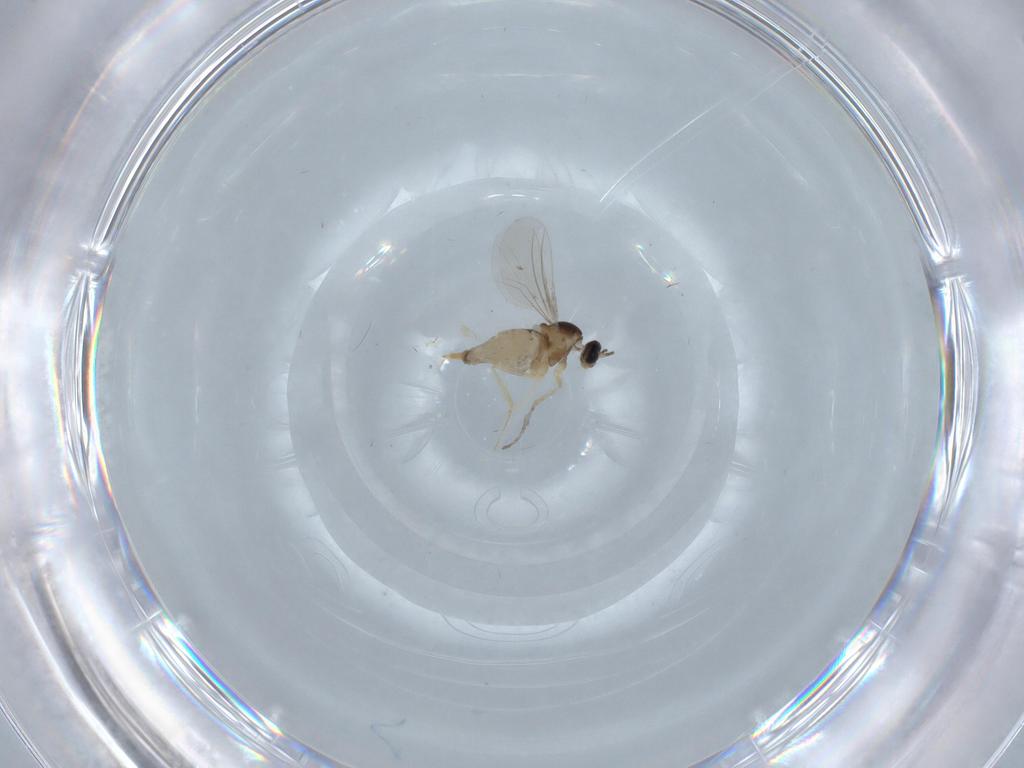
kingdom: Animalia
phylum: Arthropoda
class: Insecta
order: Diptera
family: Cecidomyiidae
